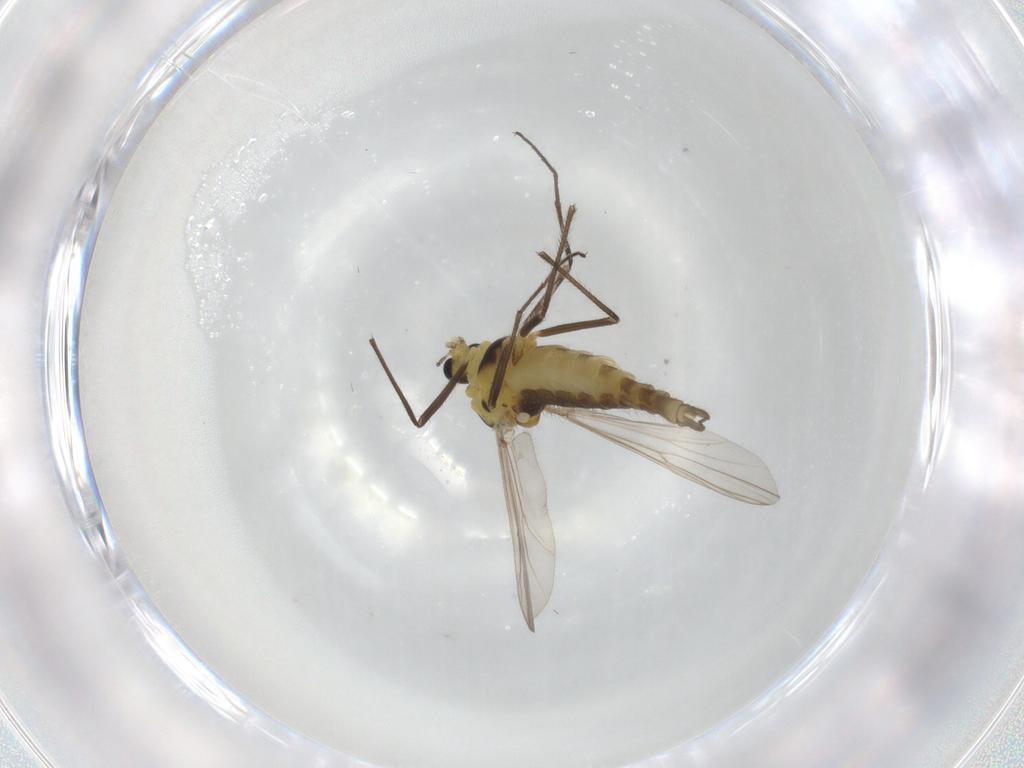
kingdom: Animalia
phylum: Arthropoda
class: Insecta
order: Diptera
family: Chironomidae
